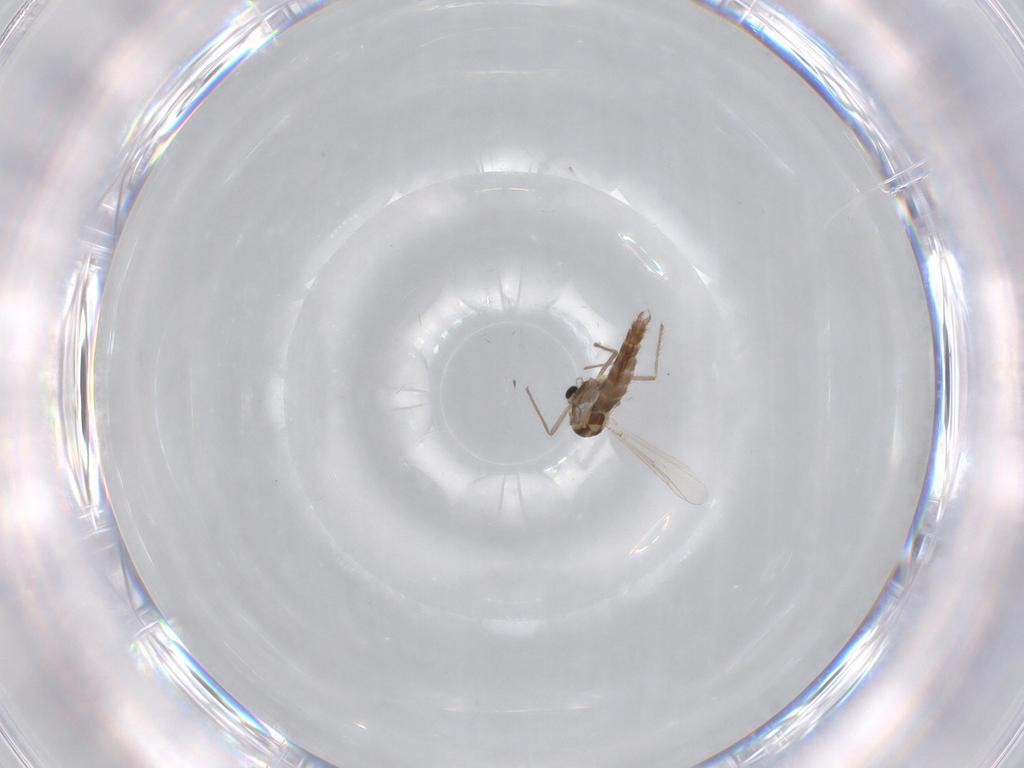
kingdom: Animalia
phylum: Arthropoda
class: Insecta
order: Diptera
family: Chironomidae
